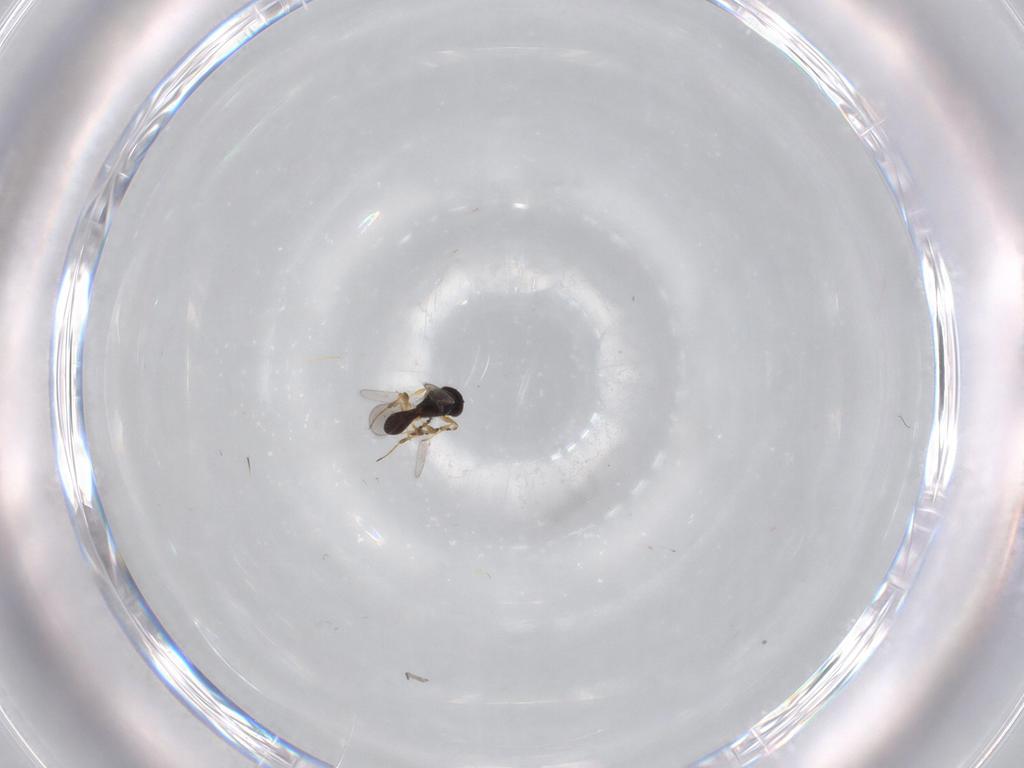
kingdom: Animalia
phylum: Arthropoda
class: Insecta
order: Hymenoptera
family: Platygastridae
